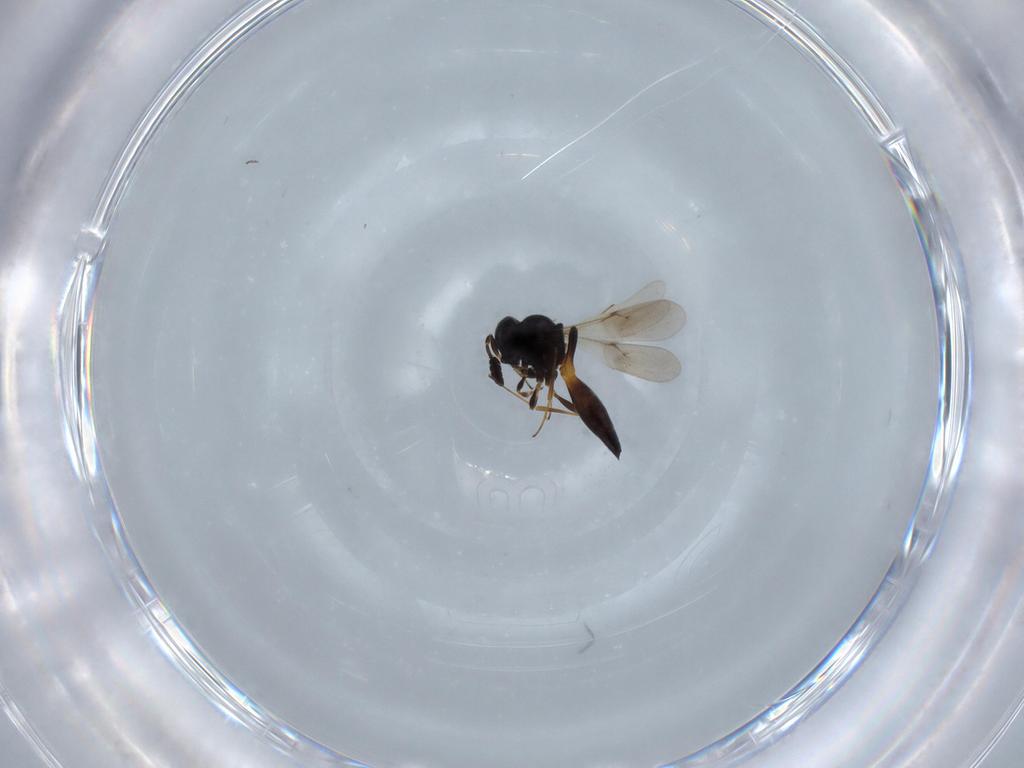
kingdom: Animalia
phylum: Arthropoda
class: Insecta
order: Hymenoptera
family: Scelionidae
